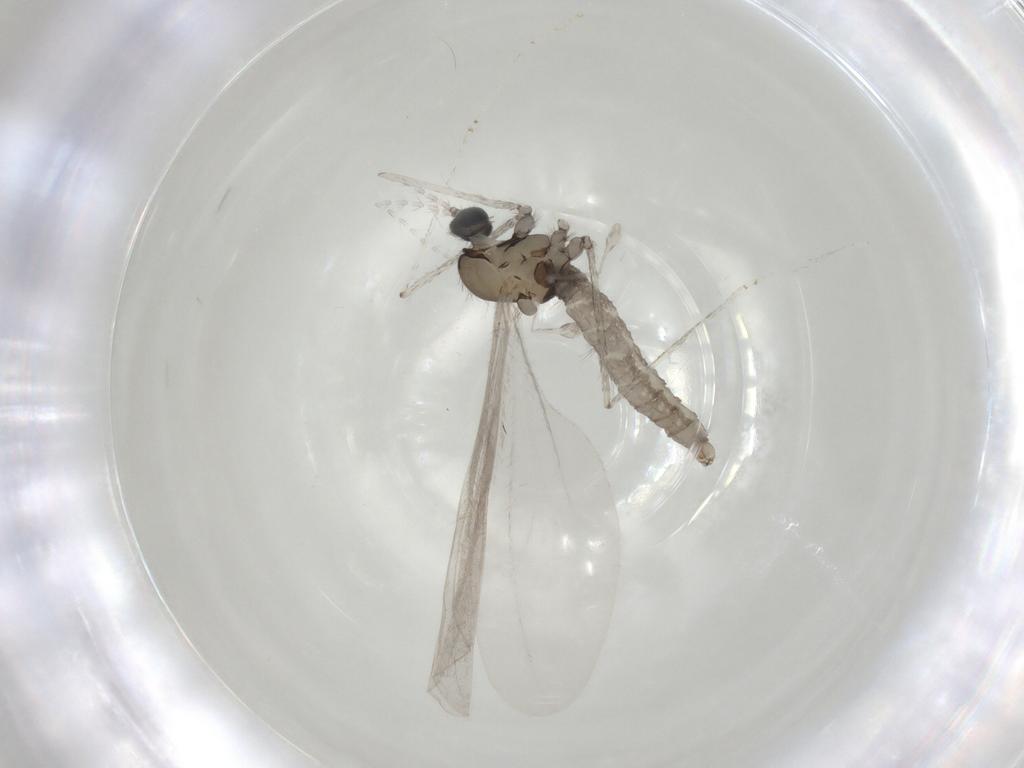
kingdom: Animalia
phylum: Arthropoda
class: Insecta
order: Diptera
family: Cecidomyiidae
